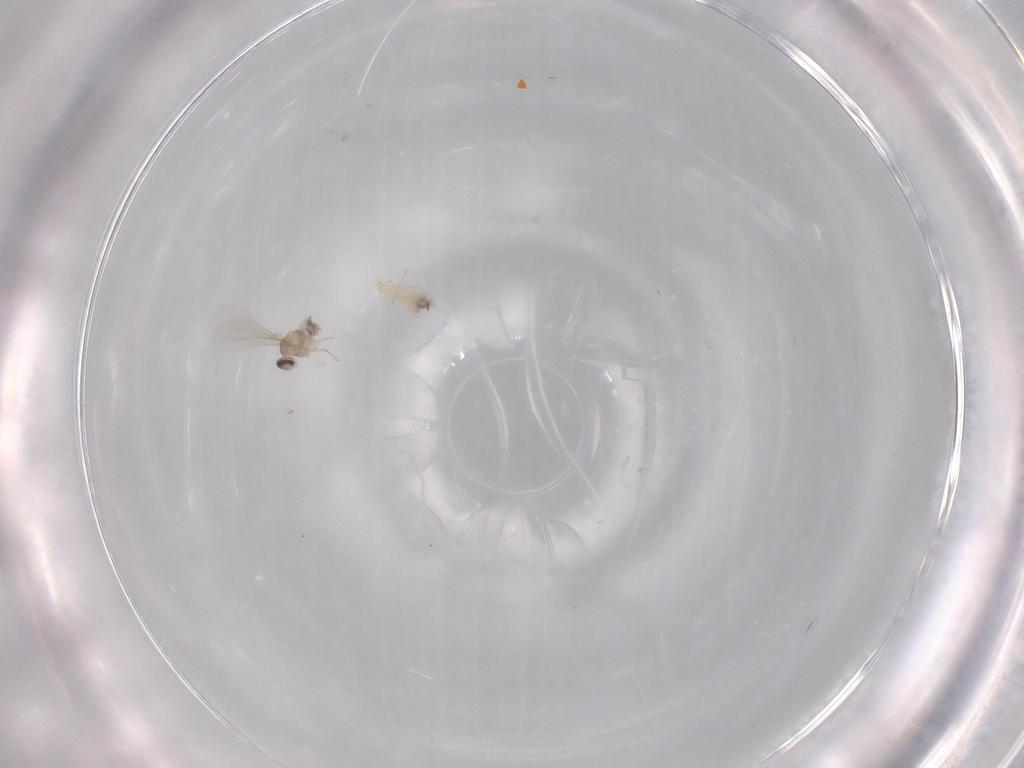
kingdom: Animalia
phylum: Arthropoda
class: Insecta
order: Diptera
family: Cecidomyiidae
